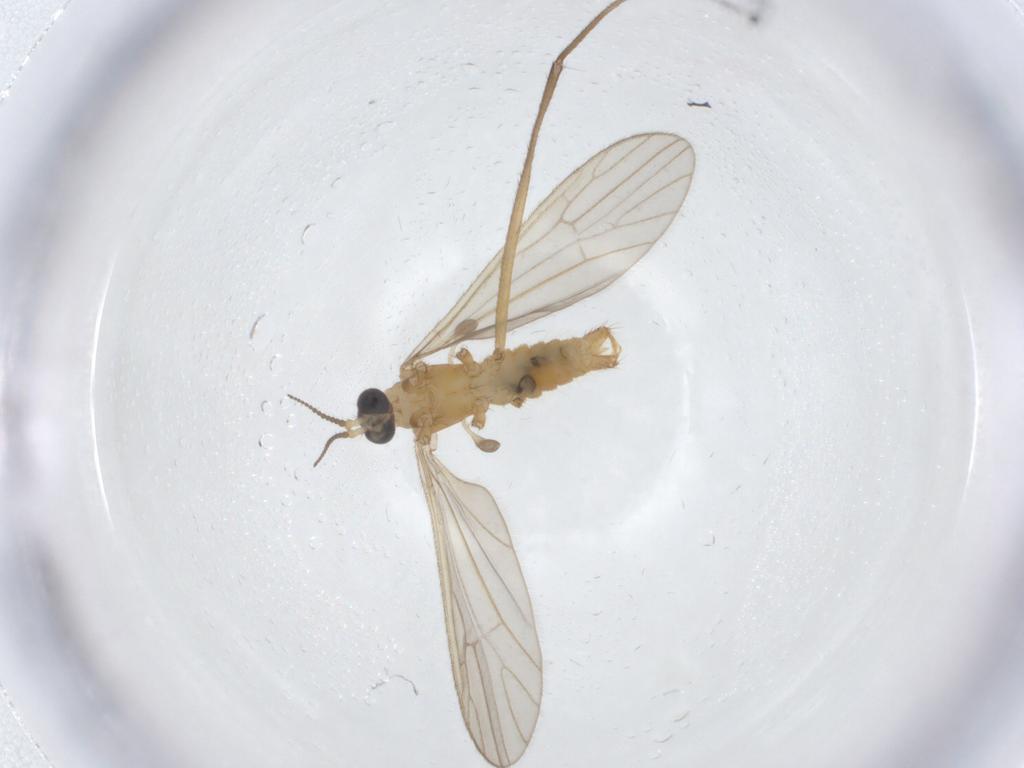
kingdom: Animalia
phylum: Arthropoda
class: Insecta
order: Diptera
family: Limoniidae
